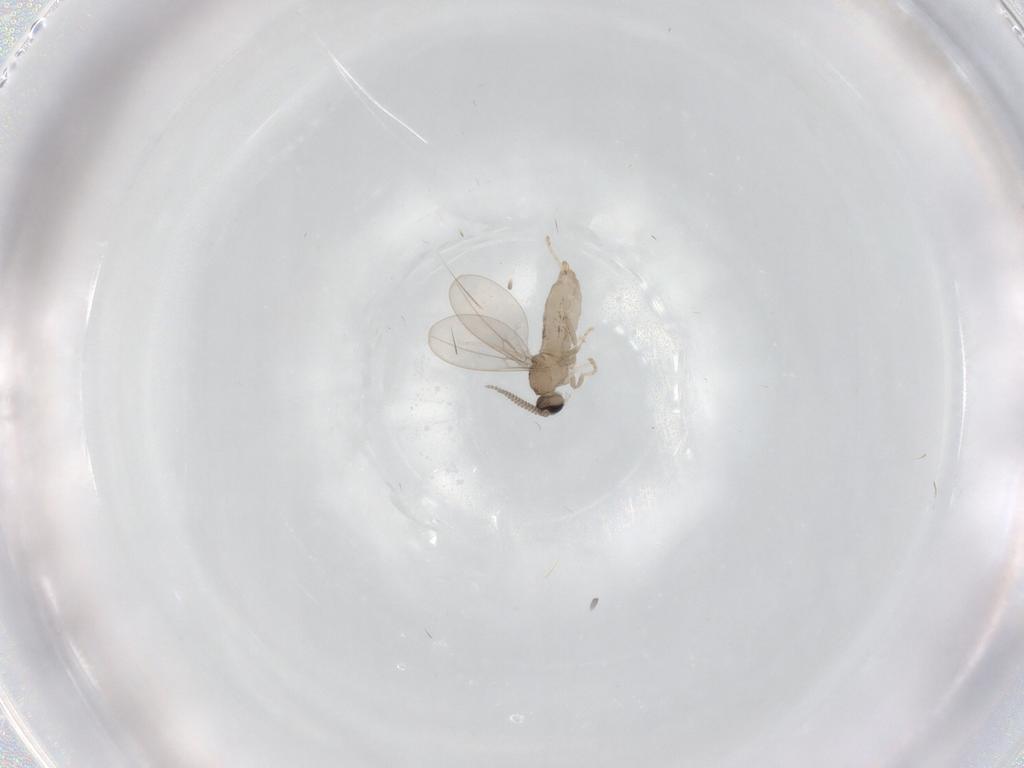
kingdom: Animalia
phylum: Arthropoda
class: Insecta
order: Diptera
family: Cecidomyiidae
